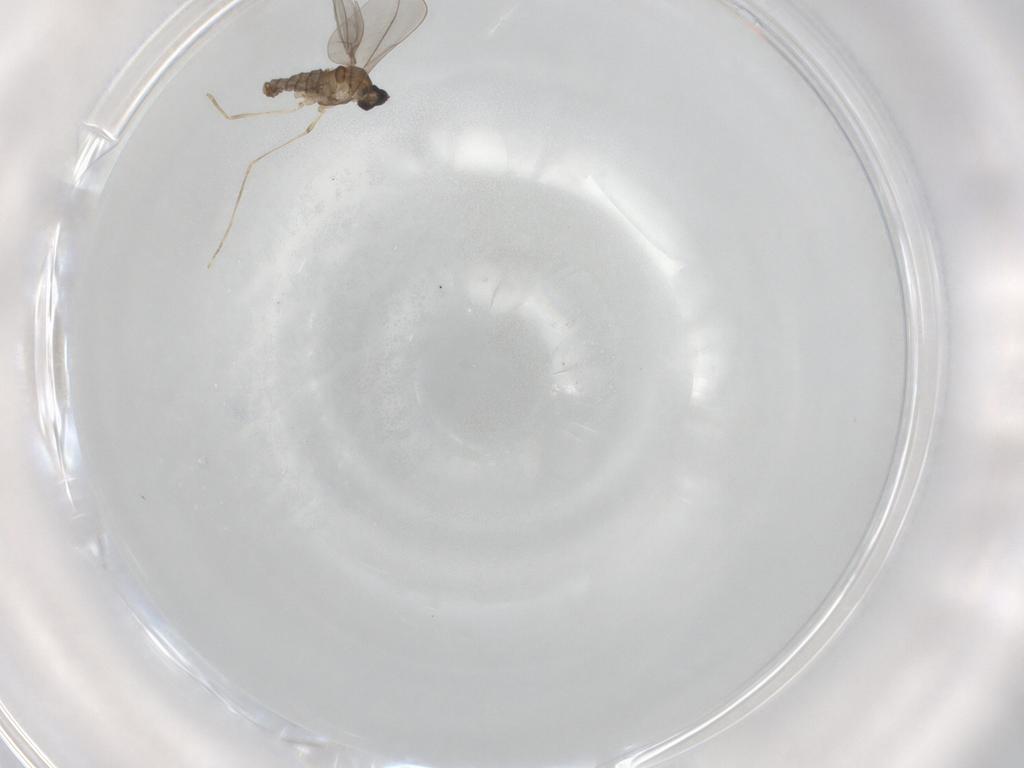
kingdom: Animalia
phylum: Arthropoda
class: Insecta
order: Diptera
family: Cecidomyiidae
